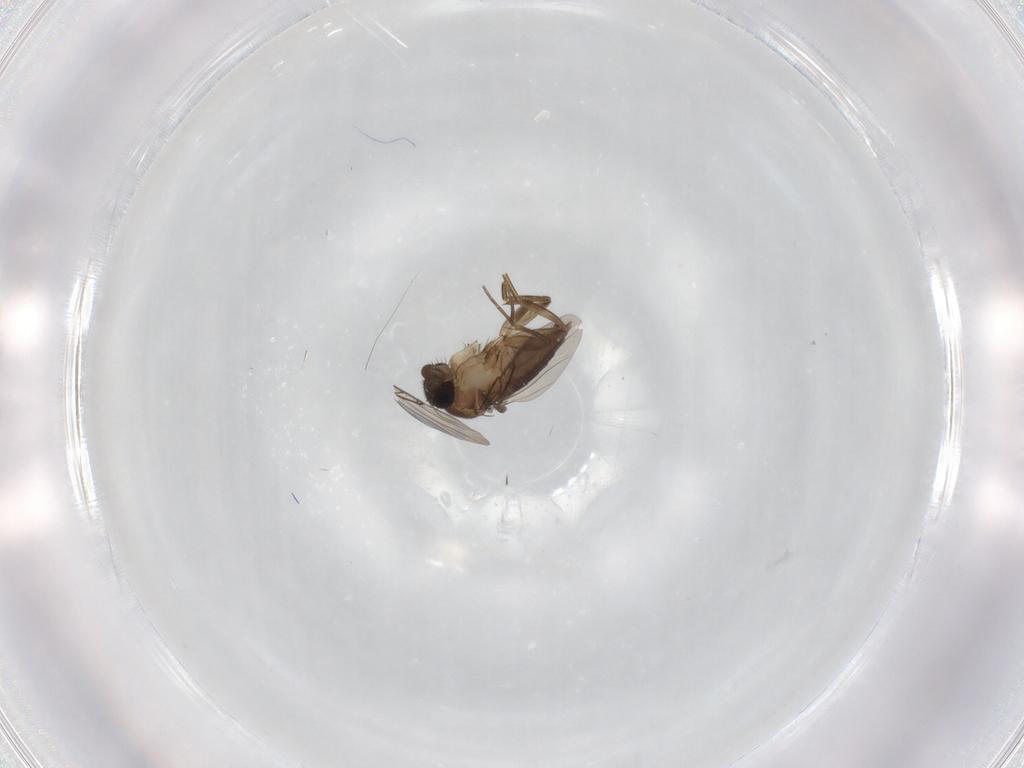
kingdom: Animalia
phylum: Arthropoda
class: Insecta
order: Diptera
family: Phoridae
